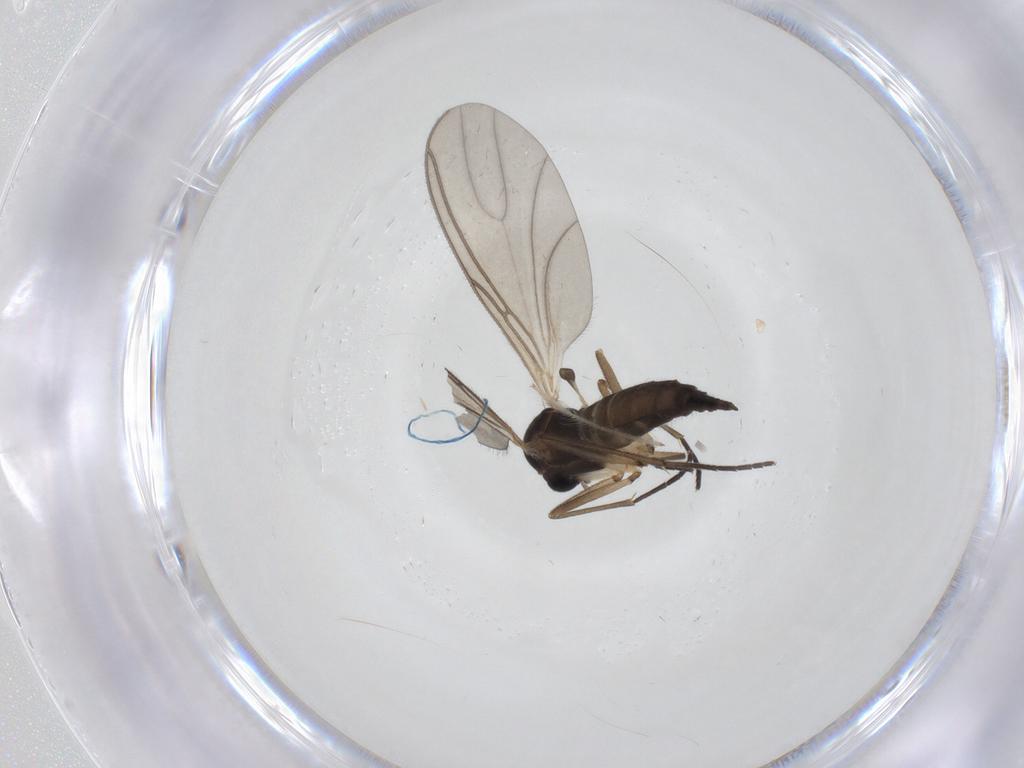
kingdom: Animalia
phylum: Arthropoda
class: Insecta
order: Diptera
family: Sciaridae
